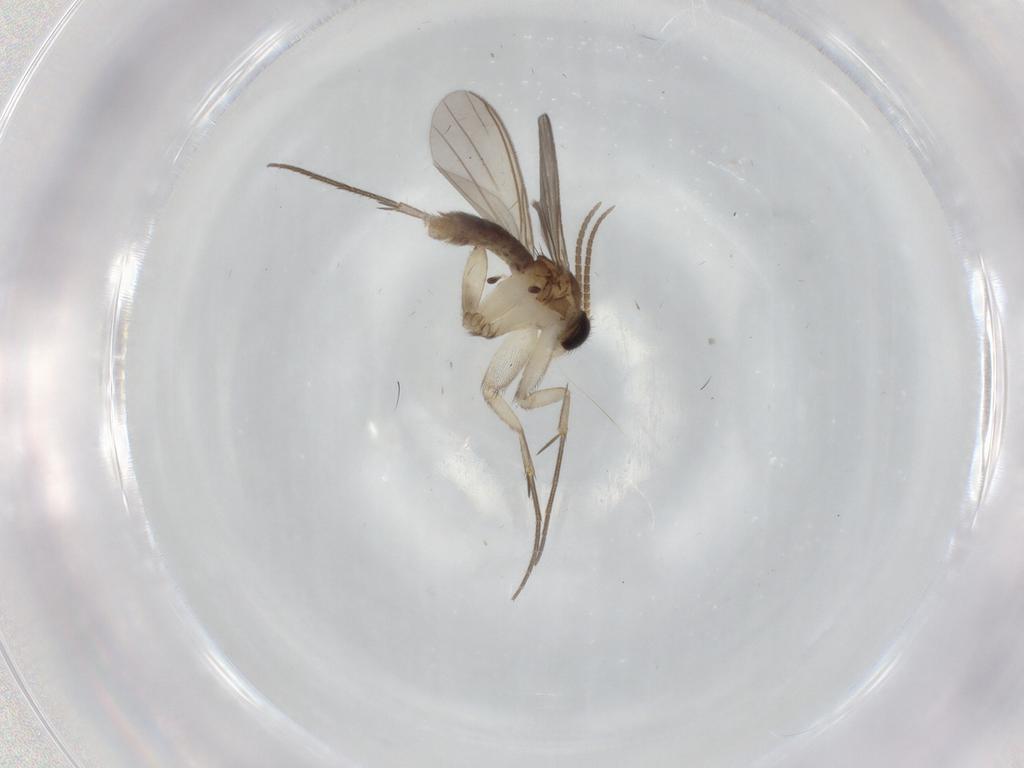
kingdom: Animalia
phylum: Arthropoda
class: Insecta
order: Diptera
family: Mycetophilidae
